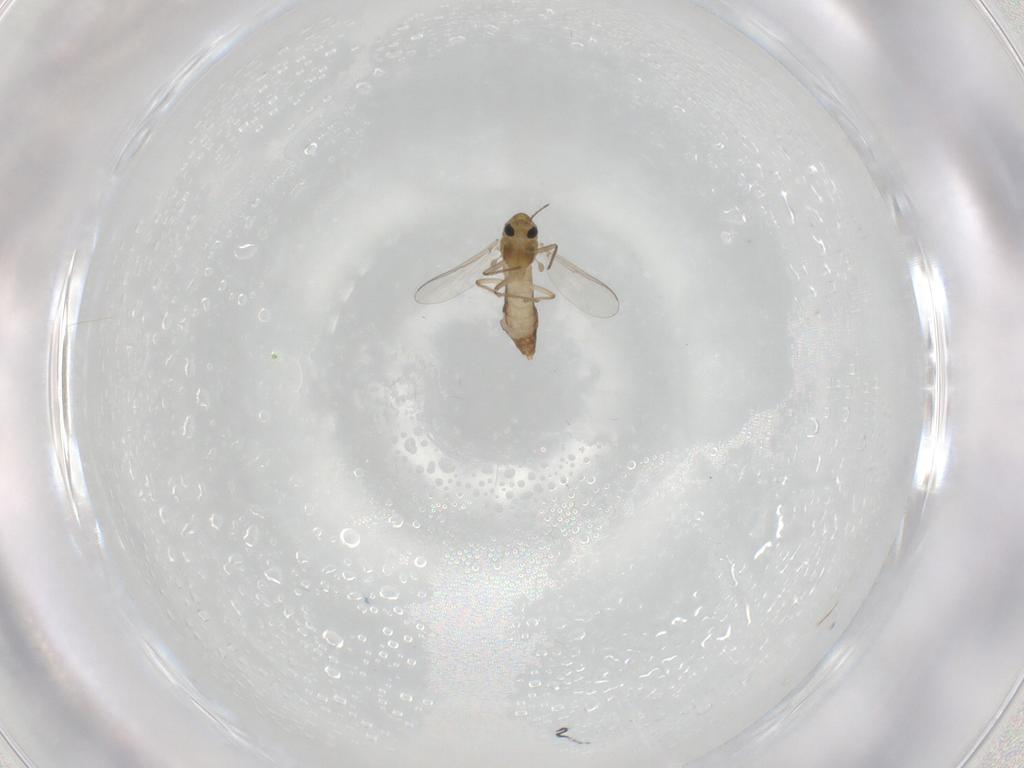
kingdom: Animalia
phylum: Arthropoda
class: Insecta
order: Diptera
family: Chironomidae
